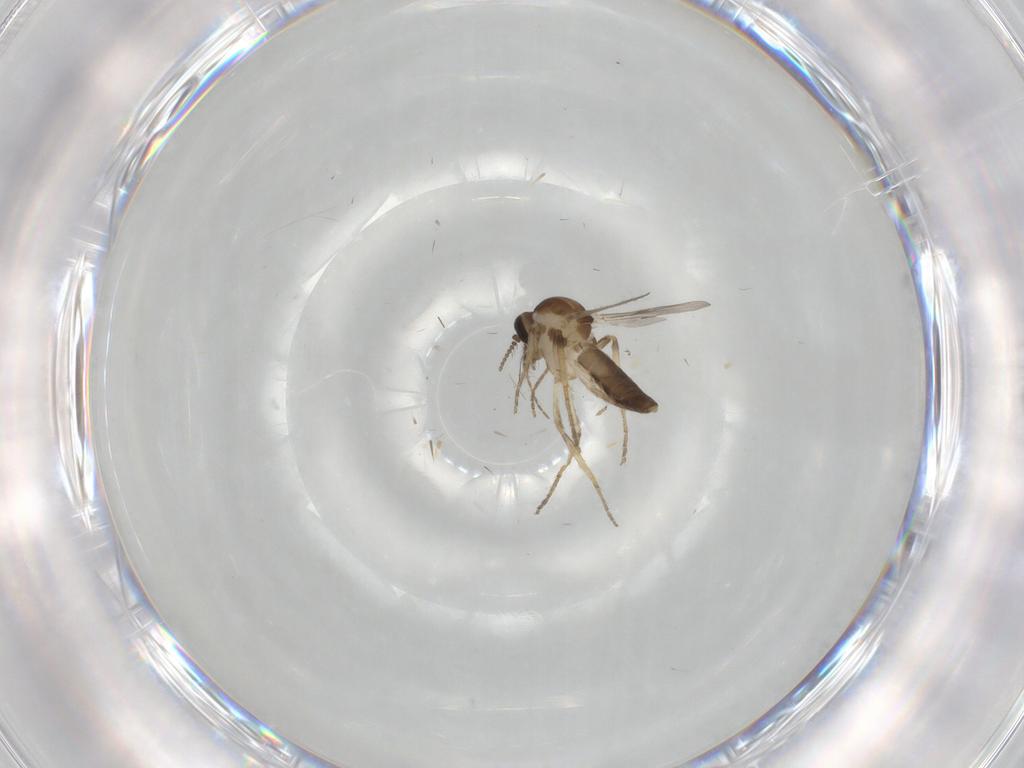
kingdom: Animalia
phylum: Arthropoda
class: Insecta
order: Diptera
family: Ceratopogonidae
